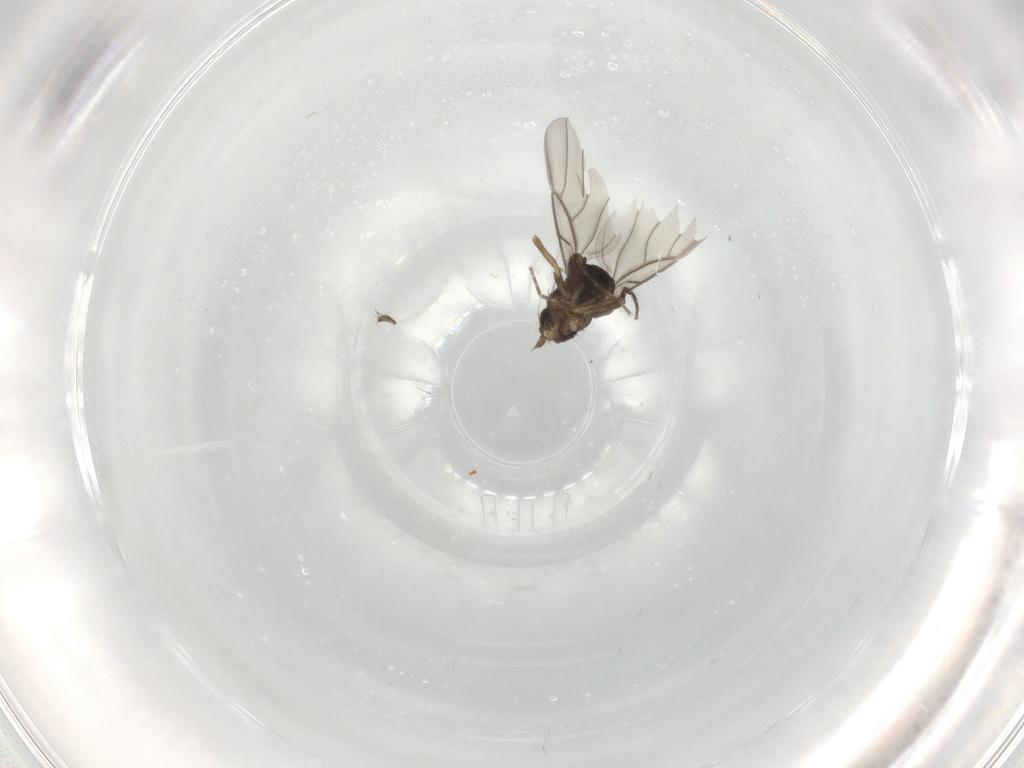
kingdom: Animalia
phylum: Arthropoda
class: Insecta
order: Diptera
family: Phoridae
